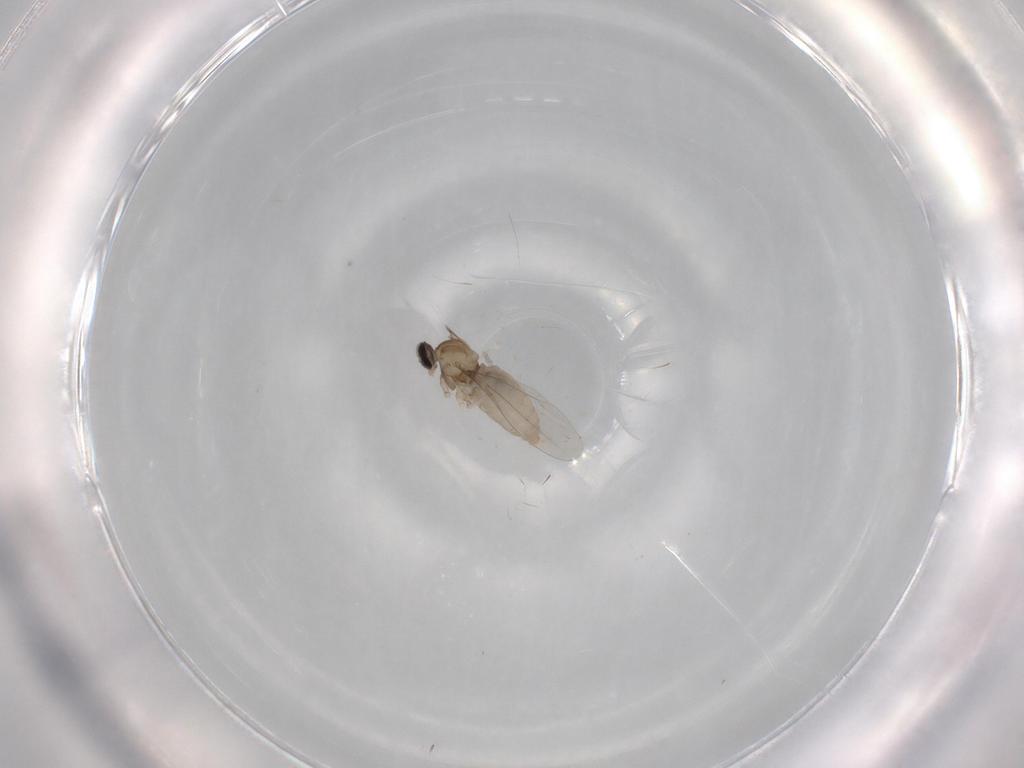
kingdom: Animalia
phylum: Arthropoda
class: Insecta
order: Diptera
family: Cecidomyiidae
